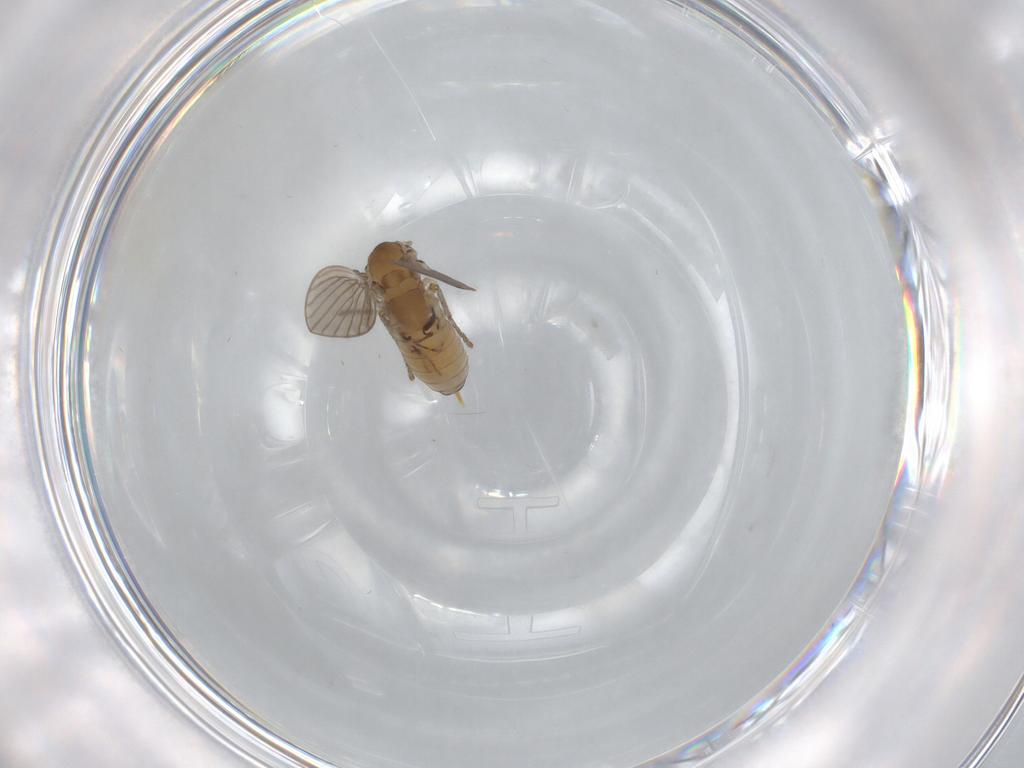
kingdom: Animalia
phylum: Arthropoda
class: Insecta
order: Diptera
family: Psychodidae
